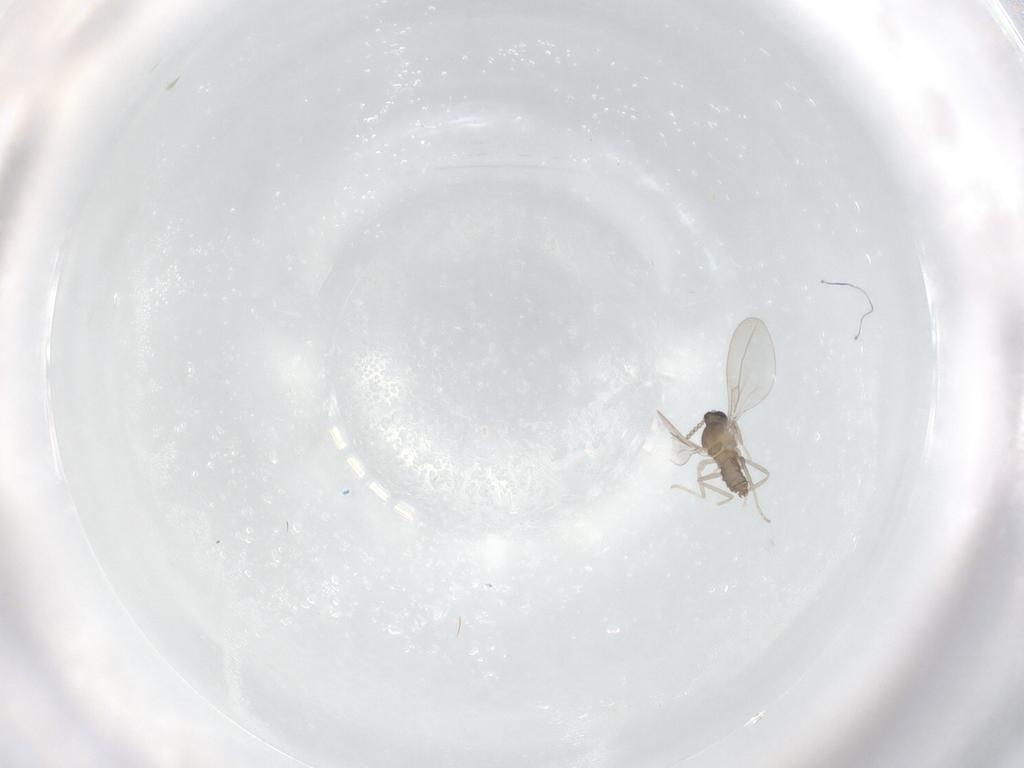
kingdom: Animalia
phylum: Arthropoda
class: Insecta
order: Diptera
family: Cecidomyiidae
